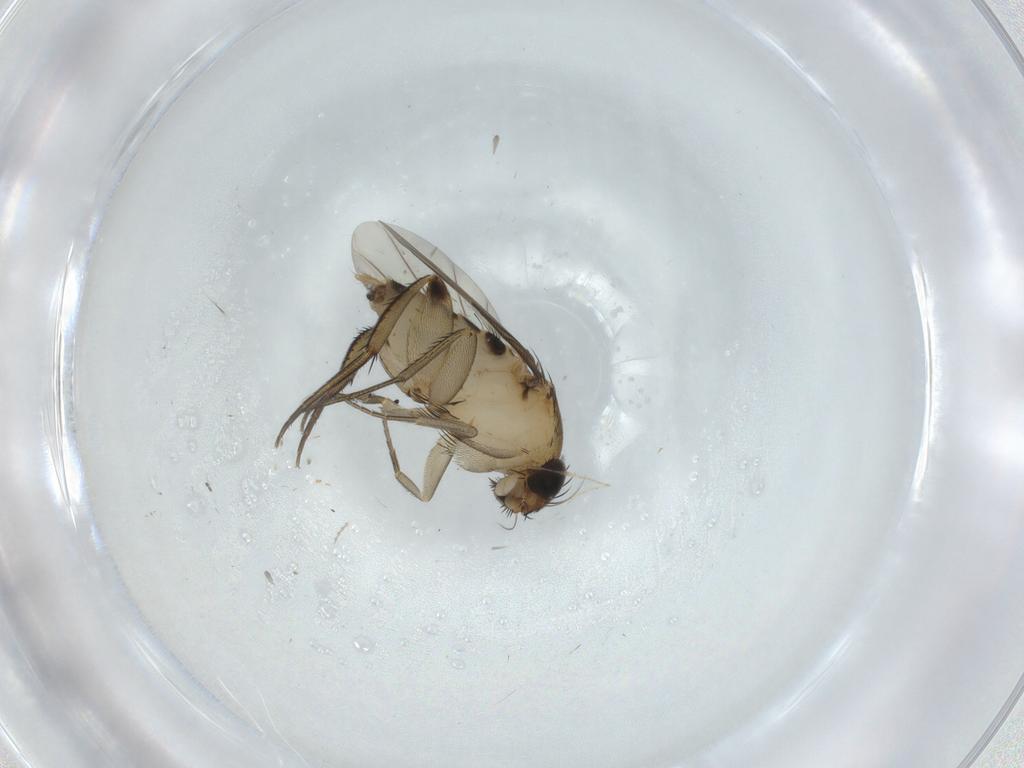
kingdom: Animalia
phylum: Arthropoda
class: Insecta
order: Diptera
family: Phoridae
